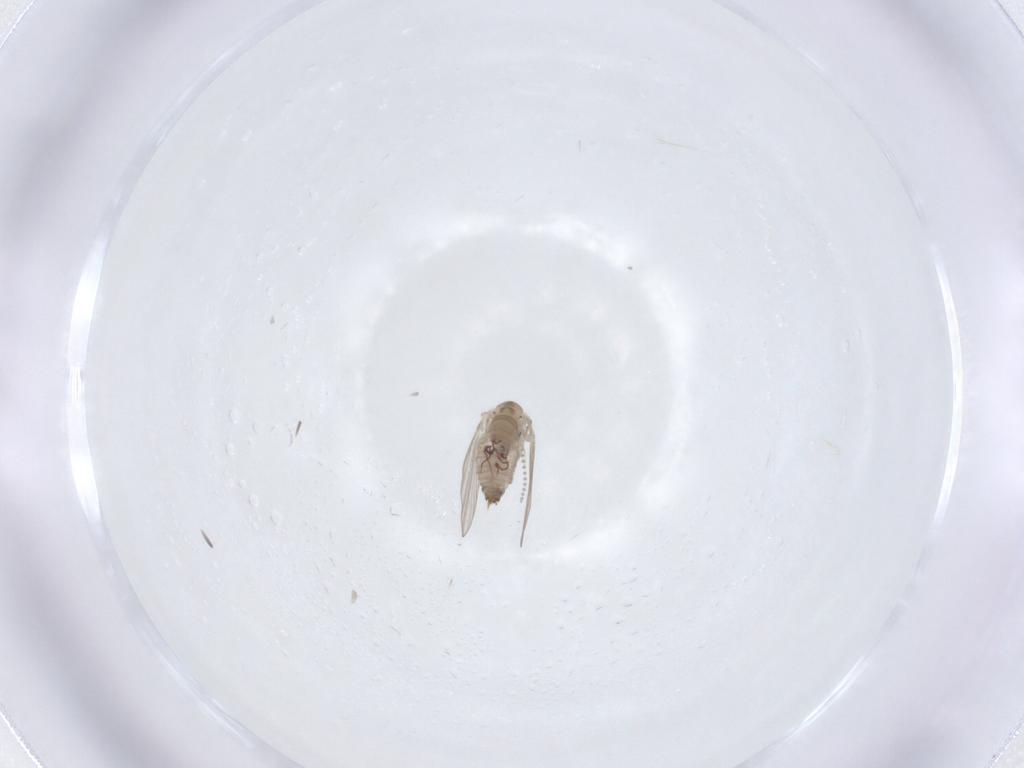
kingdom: Animalia
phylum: Arthropoda
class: Insecta
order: Diptera
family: Psychodidae
